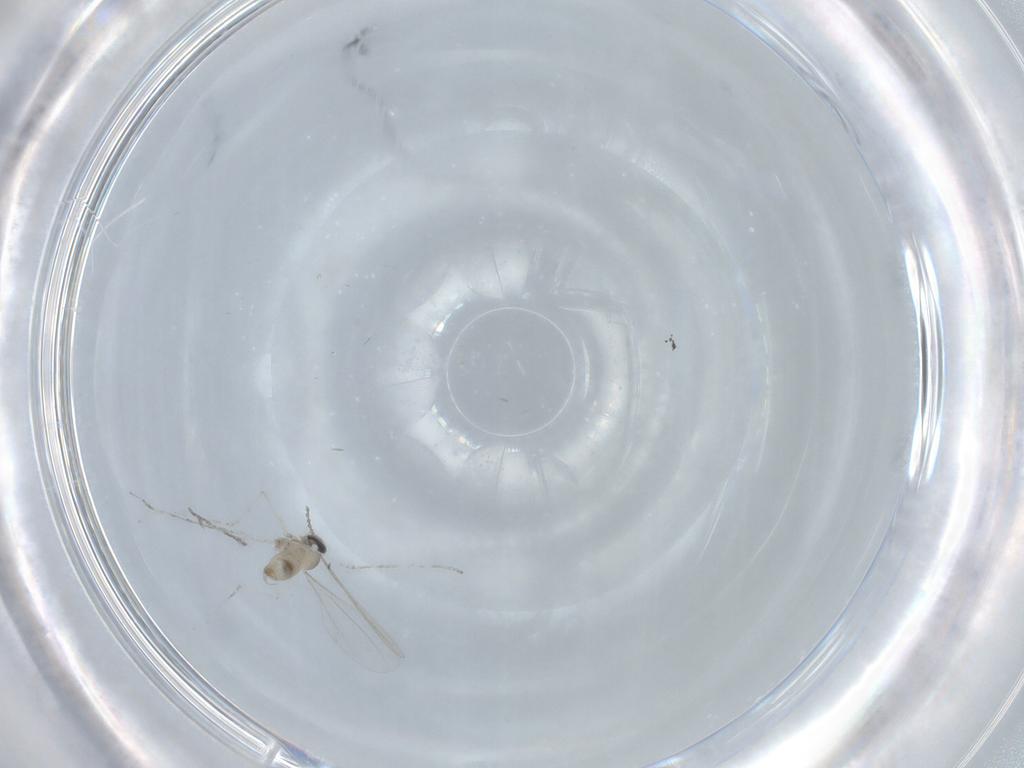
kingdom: Animalia
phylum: Arthropoda
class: Insecta
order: Diptera
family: Cecidomyiidae
